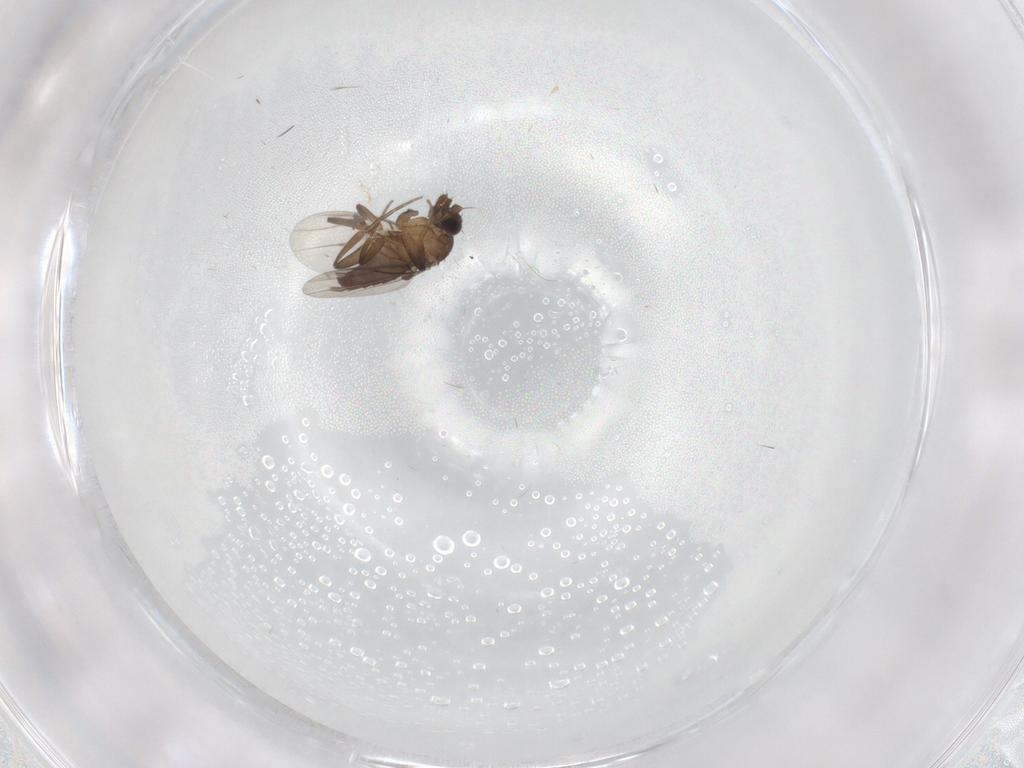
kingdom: Animalia
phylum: Arthropoda
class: Insecta
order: Diptera
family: Phoridae
